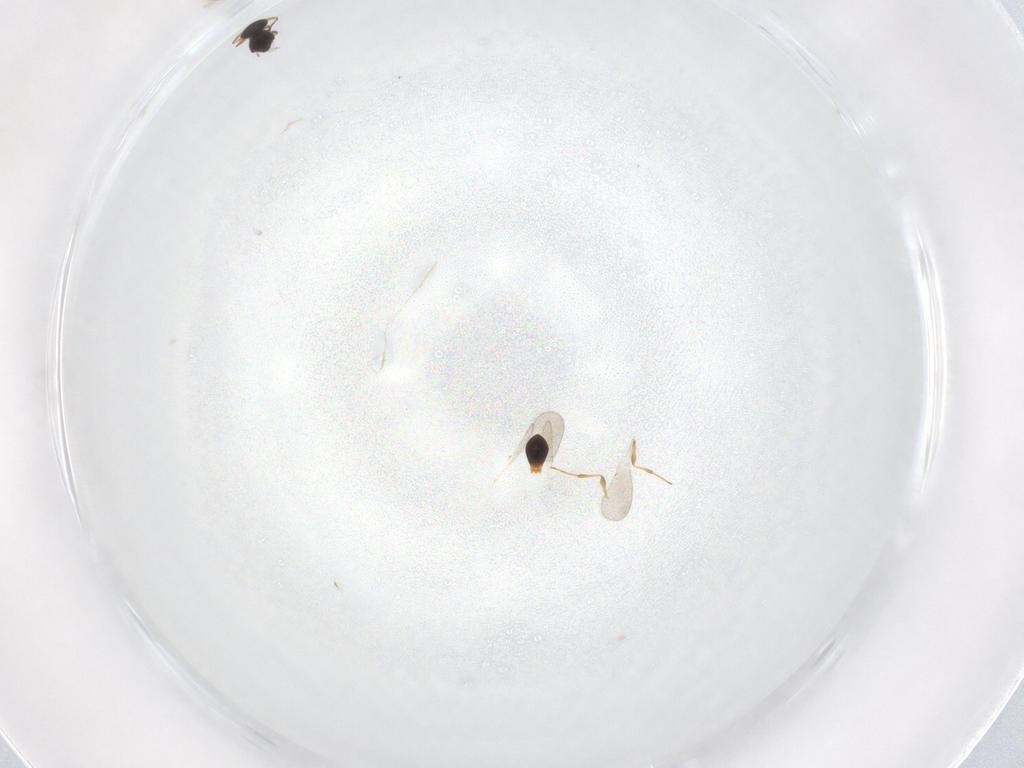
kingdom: Animalia
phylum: Arthropoda
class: Insecta
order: Hymenoptera
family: Platygastridae
